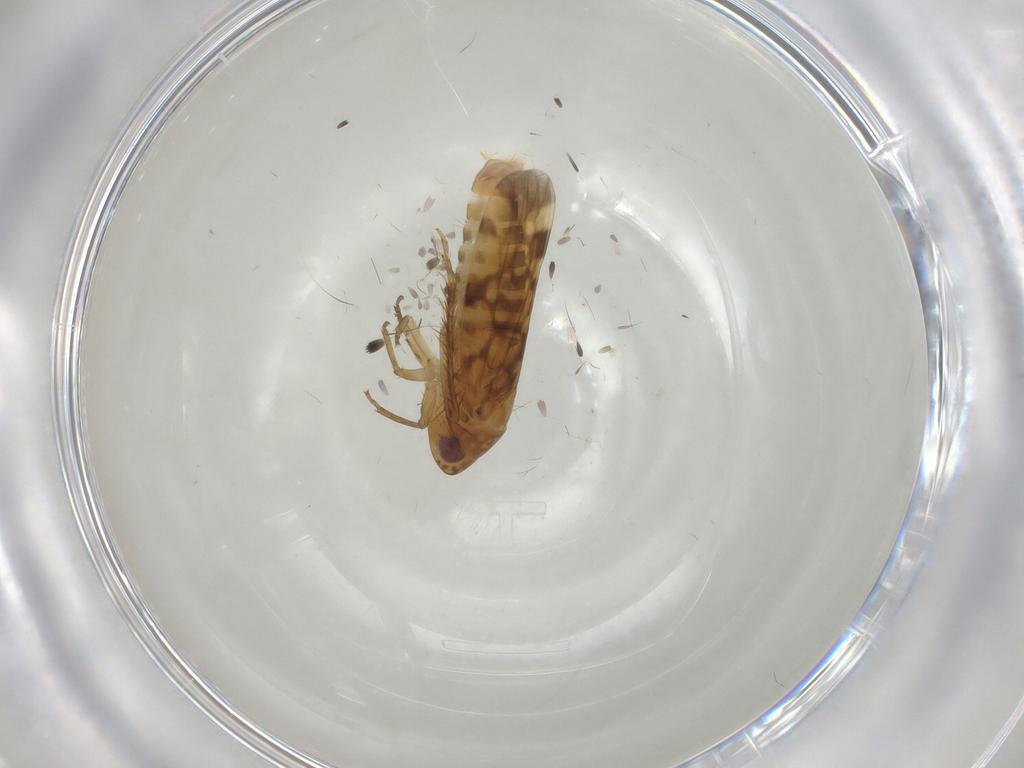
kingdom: Animalia
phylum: Arthropoda
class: Insecta
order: Hemiptera
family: Cicadellidae
